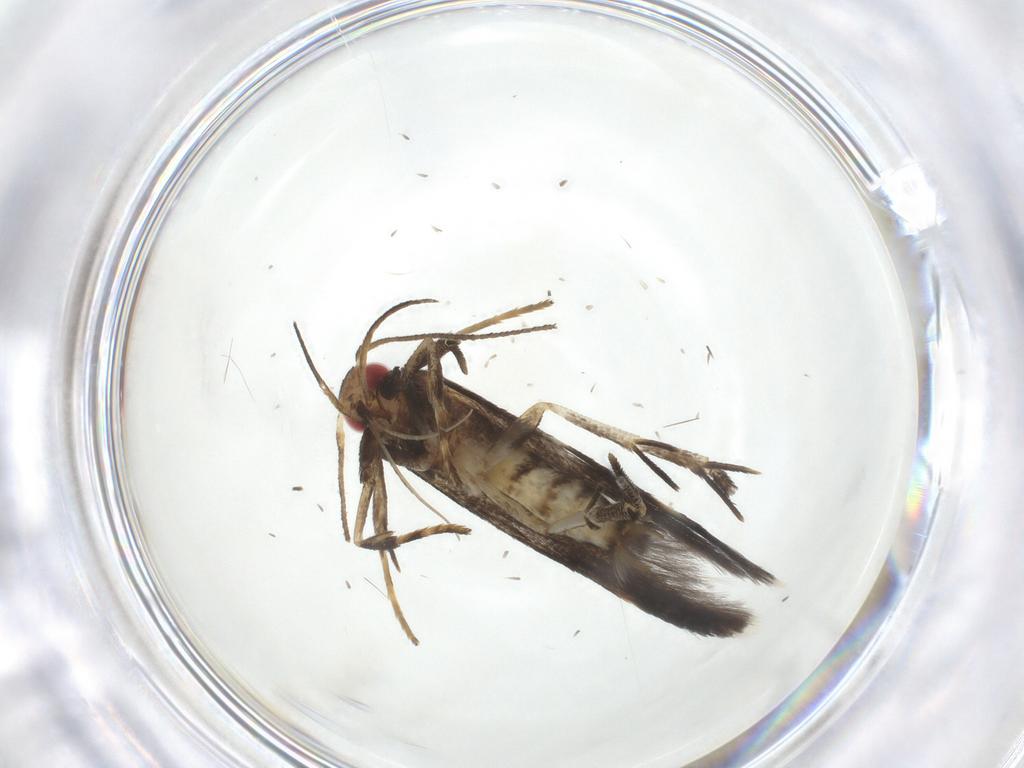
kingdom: Animalia
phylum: Arthropoda
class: Insecta
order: Lepidoptera
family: Gelechiidae
